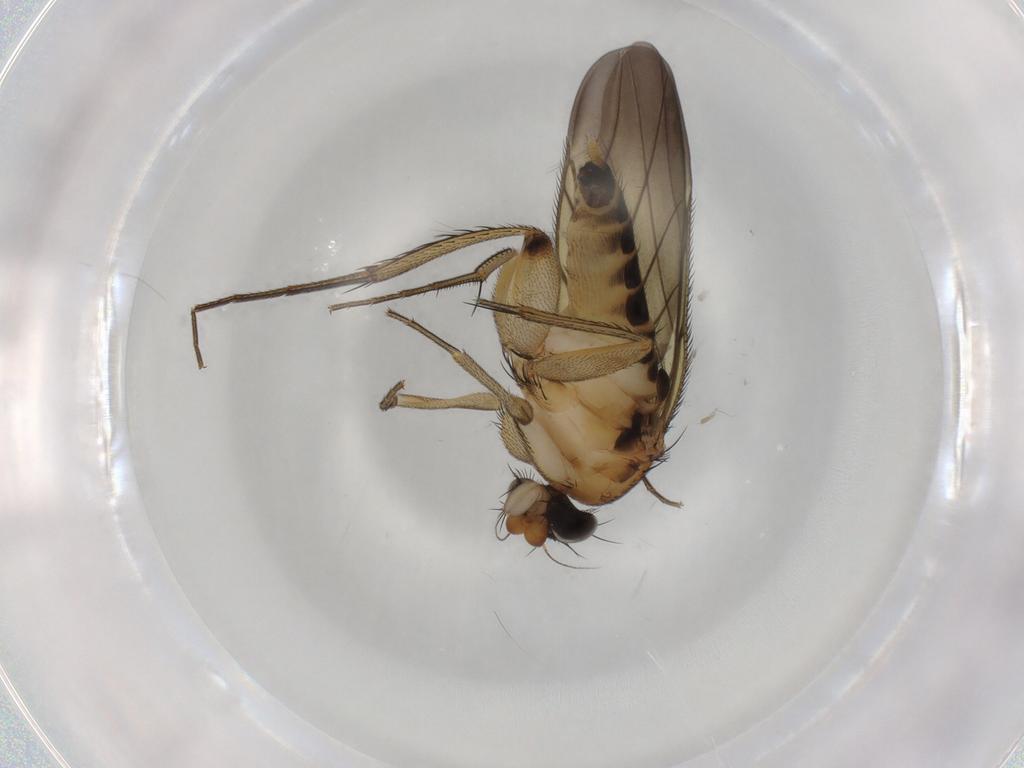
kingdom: Animalia
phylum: Arthropoda
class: Insecta
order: Diptera
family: Phoridae
